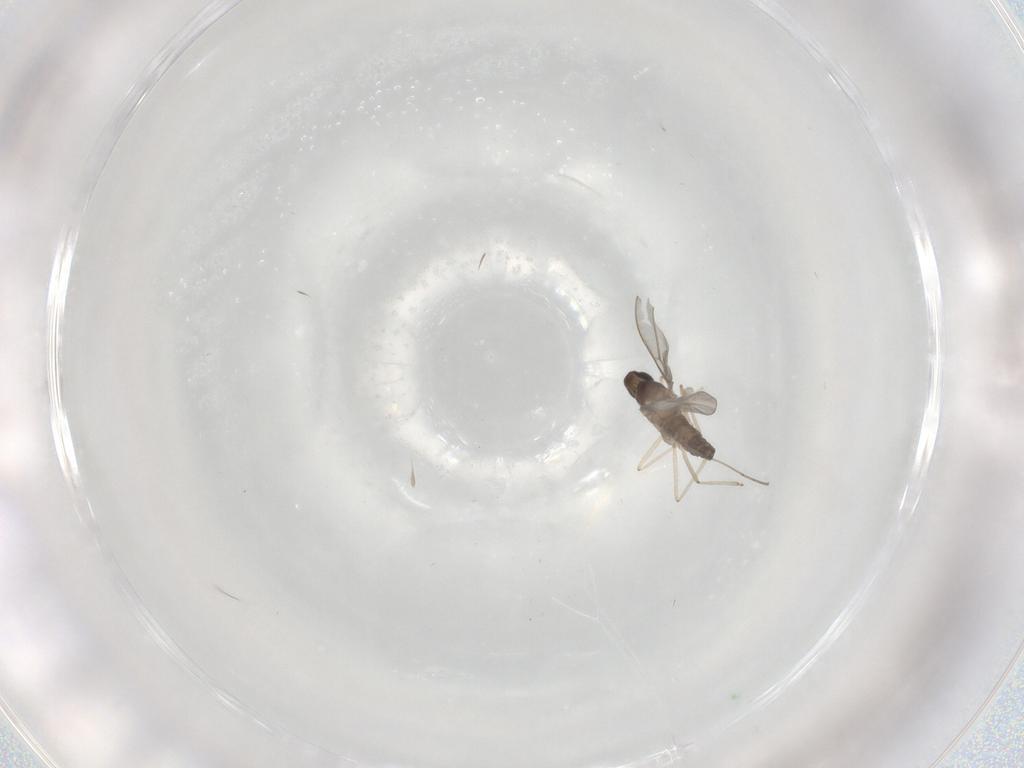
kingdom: Animalia
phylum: Arthropoda
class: Insecta
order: Diptera
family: Cecidomyiidae
